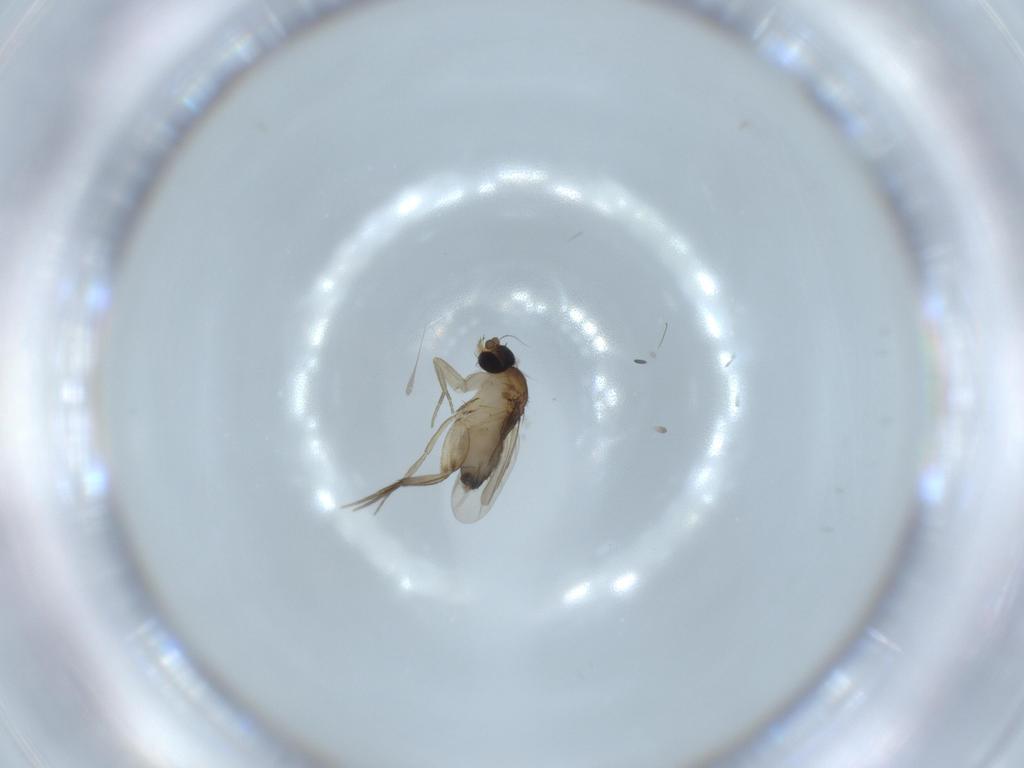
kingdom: Animalia
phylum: Arthropoda
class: Insecta
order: Diptera
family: Phoridae
